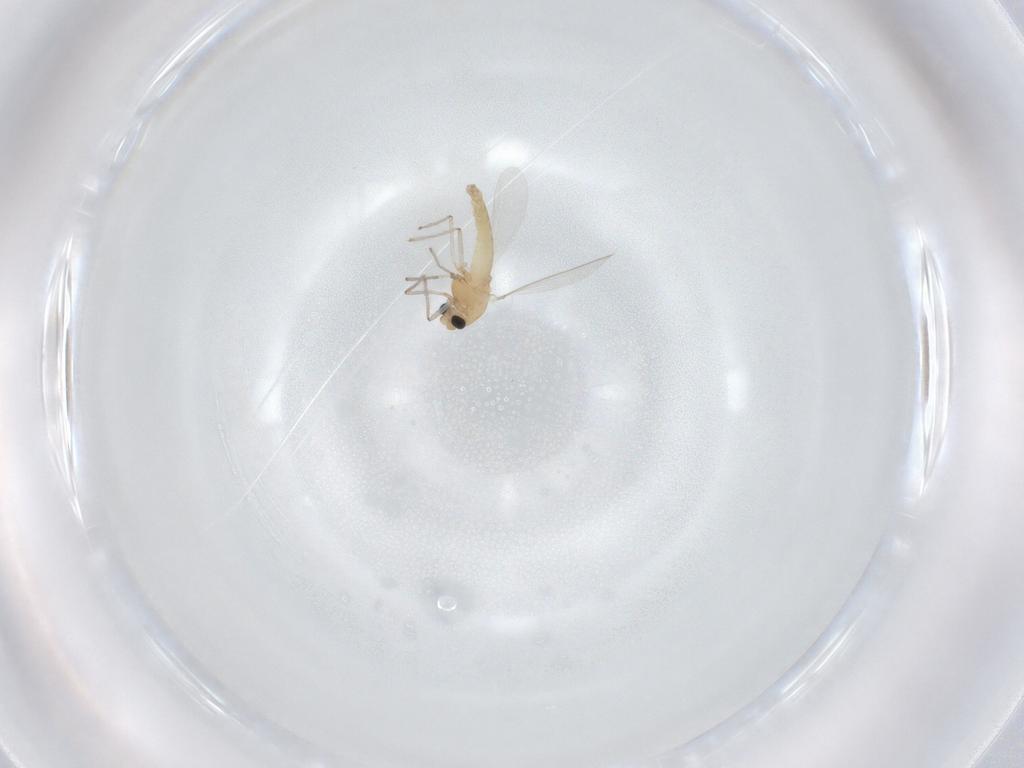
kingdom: Animalia
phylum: Arthropoda
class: Insecta
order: Diptera
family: Chironomidae
